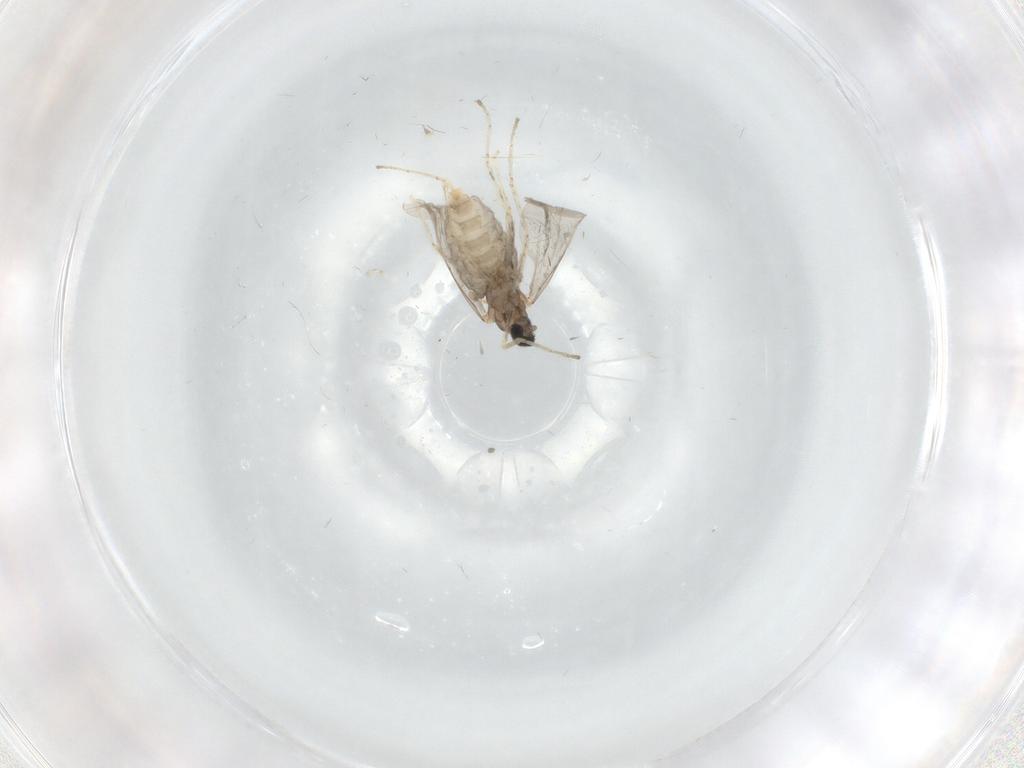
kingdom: Animalia
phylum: Arthropoda
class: Insecta
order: Diptera
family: Cecidomyiidae
